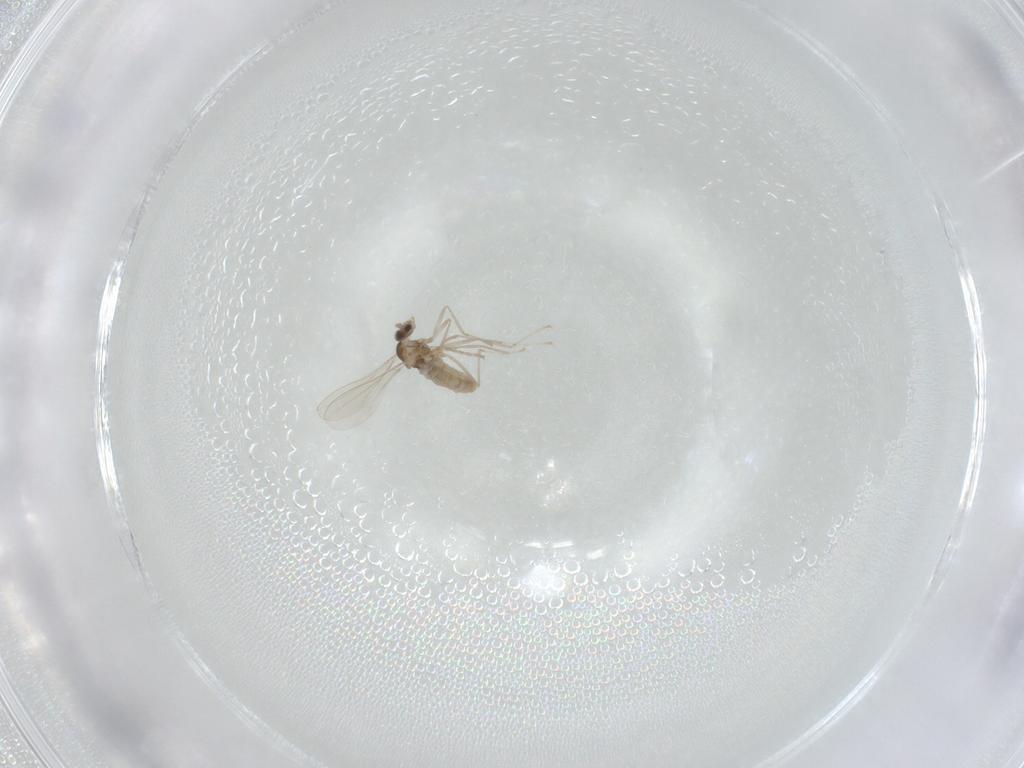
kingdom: Animalia
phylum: Arthropoda
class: Insecta
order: Diptera
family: Cecidomyiidae
